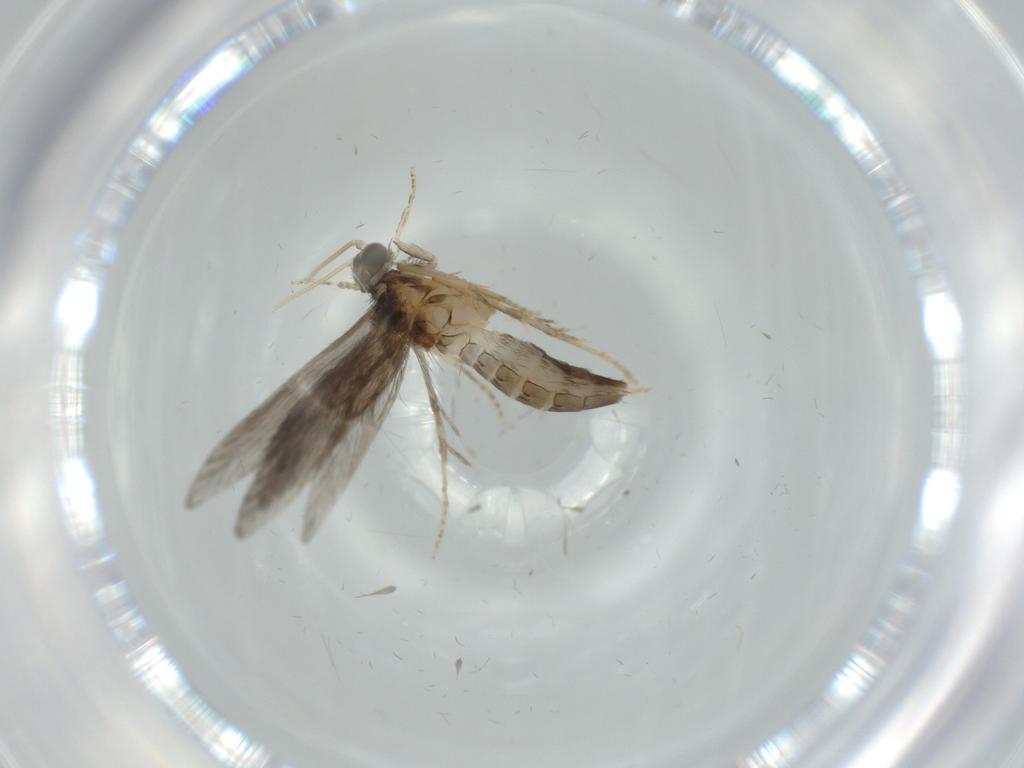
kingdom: Animalia
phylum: Arthropoda
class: Insecta
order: Trichoptera
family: Hydroptilidae
